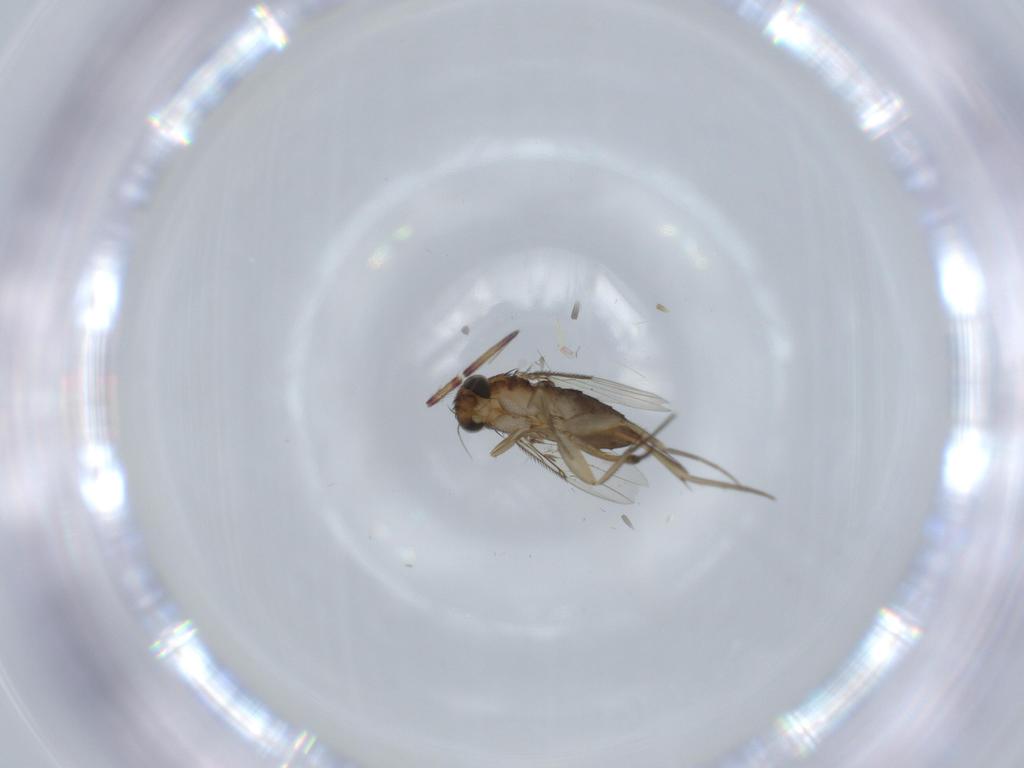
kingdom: Animalia
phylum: Arthropoda
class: Insecta
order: Diptera
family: Phoridae
